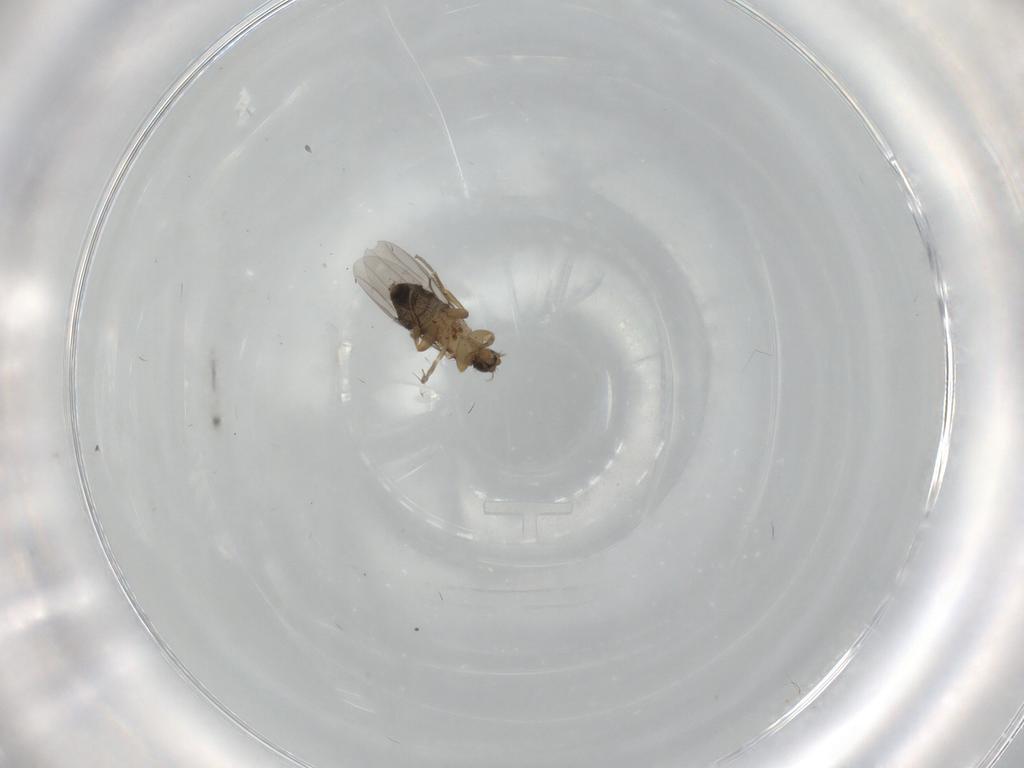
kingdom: Animalia
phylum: Arthropoda
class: Insecta
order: Diptera
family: Phoridae
